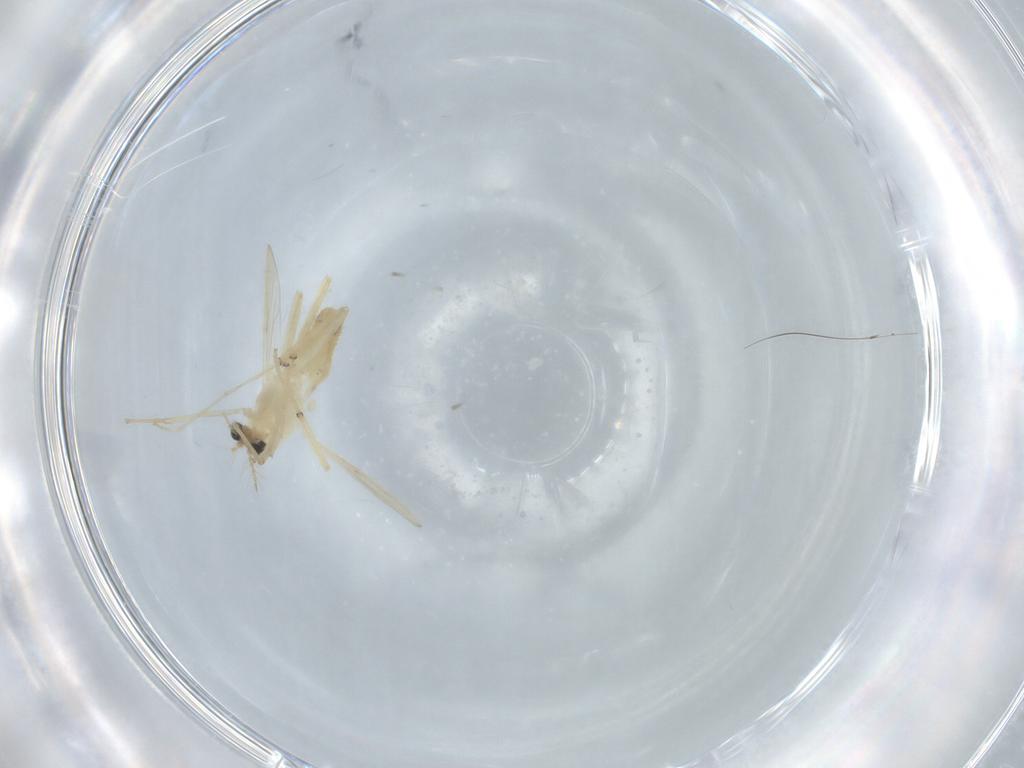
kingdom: Animalia
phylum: Arthropoda
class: Insecta
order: Diptera
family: Chironomidae
